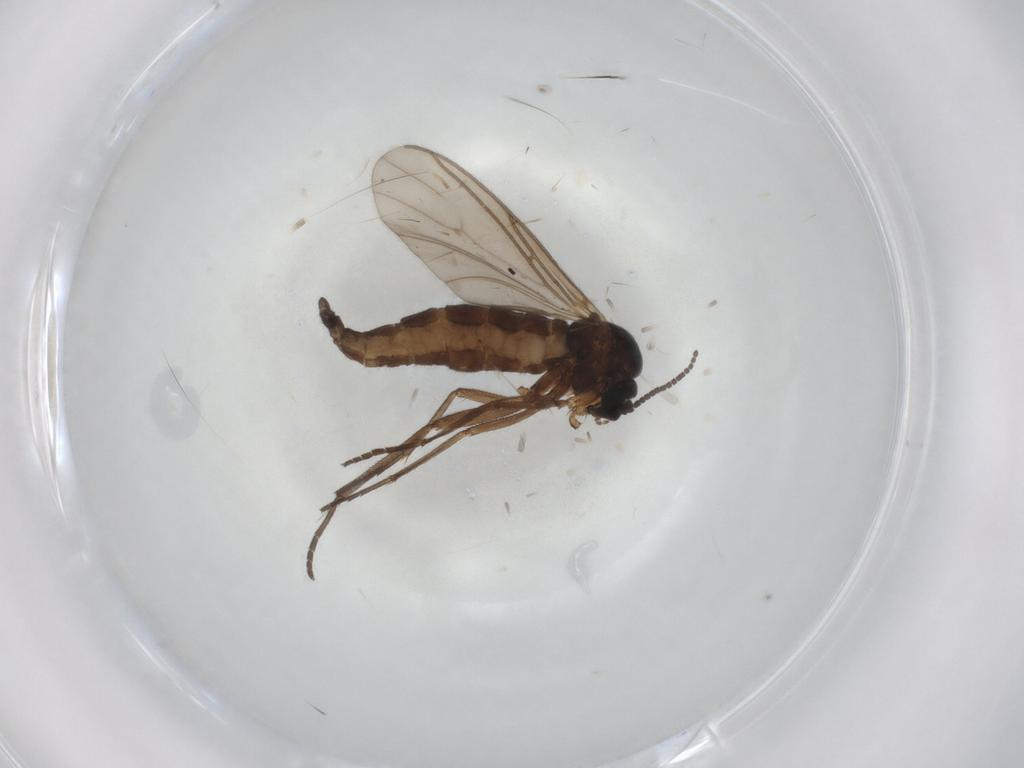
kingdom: Animalia
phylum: Arthropoda
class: Insecta
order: Diptera
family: Sciaridae
